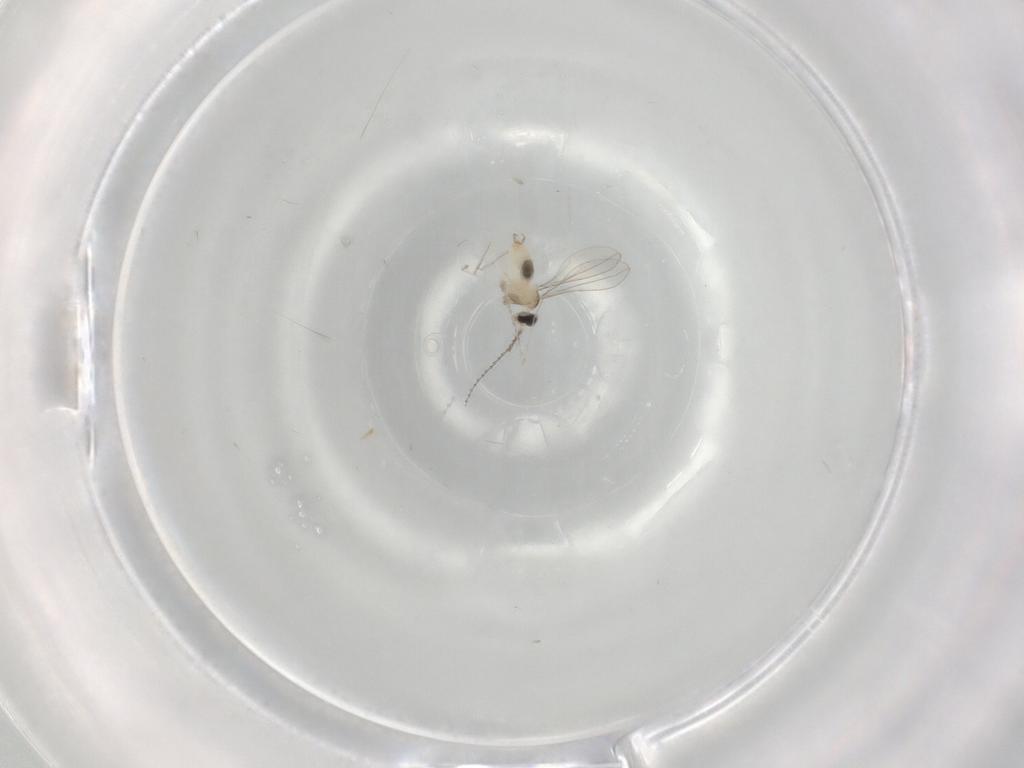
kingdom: Animalia
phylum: Arthropoda
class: Insecta
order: Diptera
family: Cecidomyiidae
